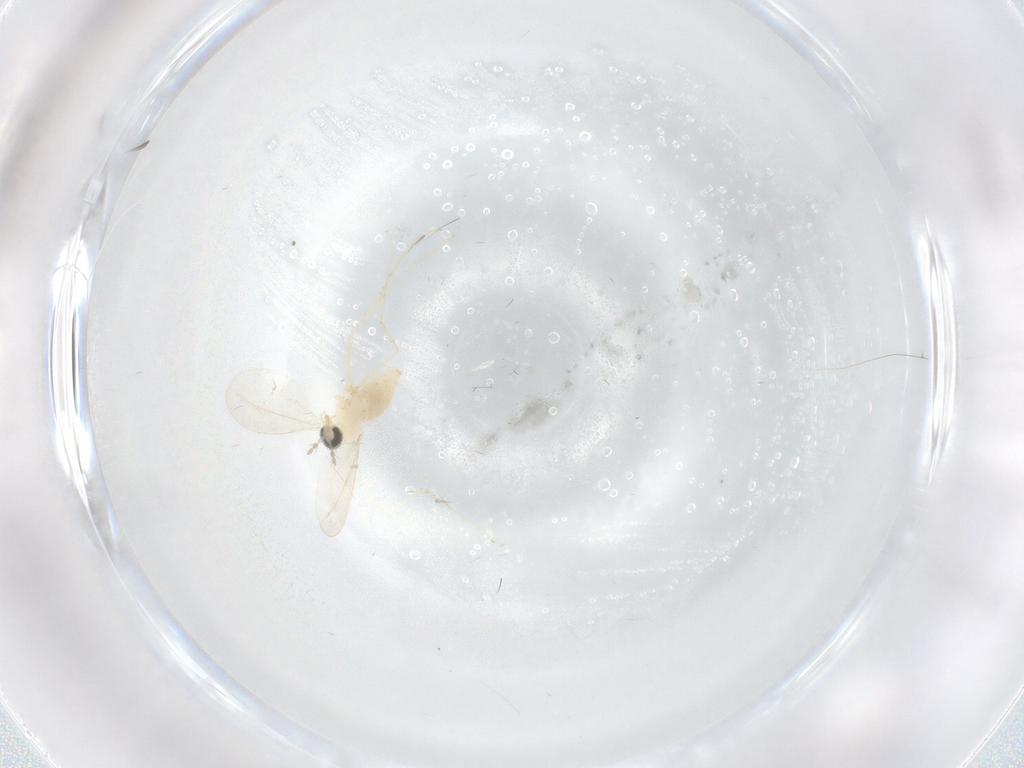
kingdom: Animalia
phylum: Arthropoda
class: Insecta
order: Diptera
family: Cecidomyiidae
